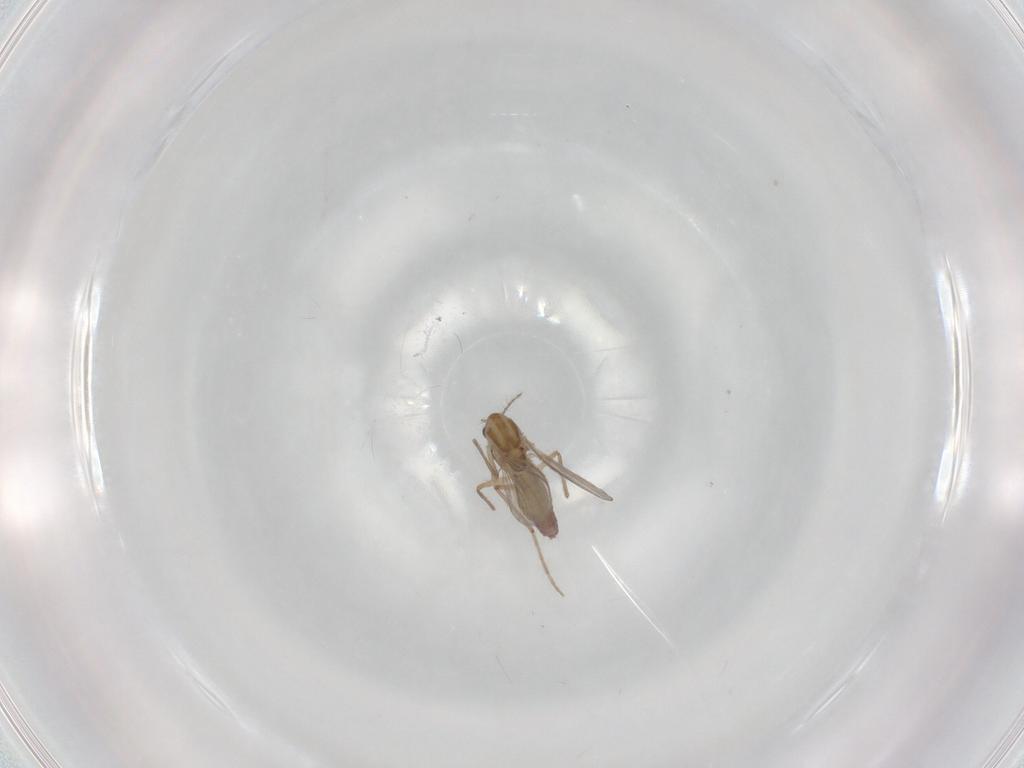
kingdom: Animalia
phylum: Arthropoda
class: Insecta
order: Diptera
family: Chironomidae
